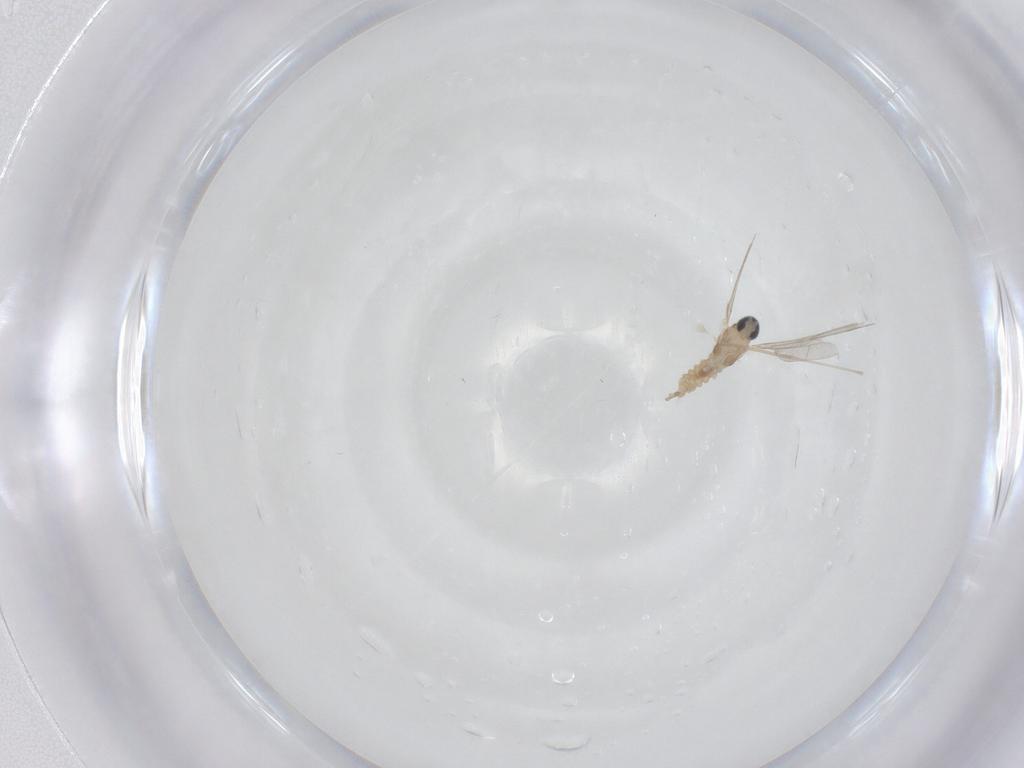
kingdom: Animalia
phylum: Arthropoda
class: Insecta
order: Diptera
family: Cecidomyiidae
